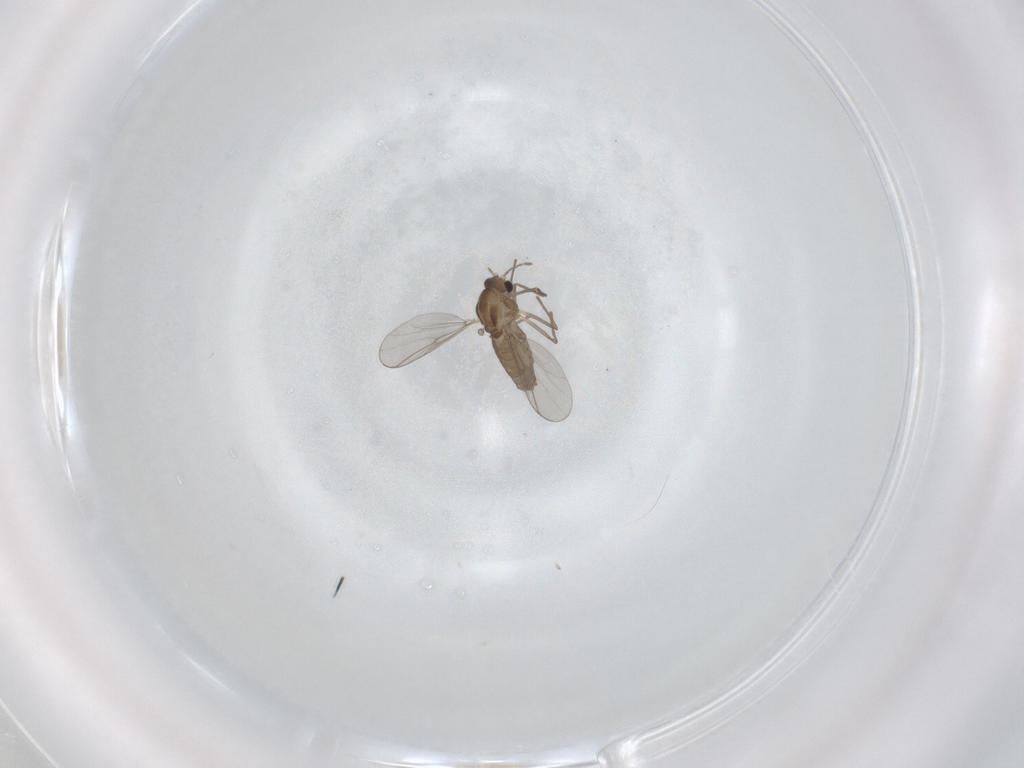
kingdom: Animalia
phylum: Arthropoda
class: Insecta
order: Diptera
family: Chironomidae
